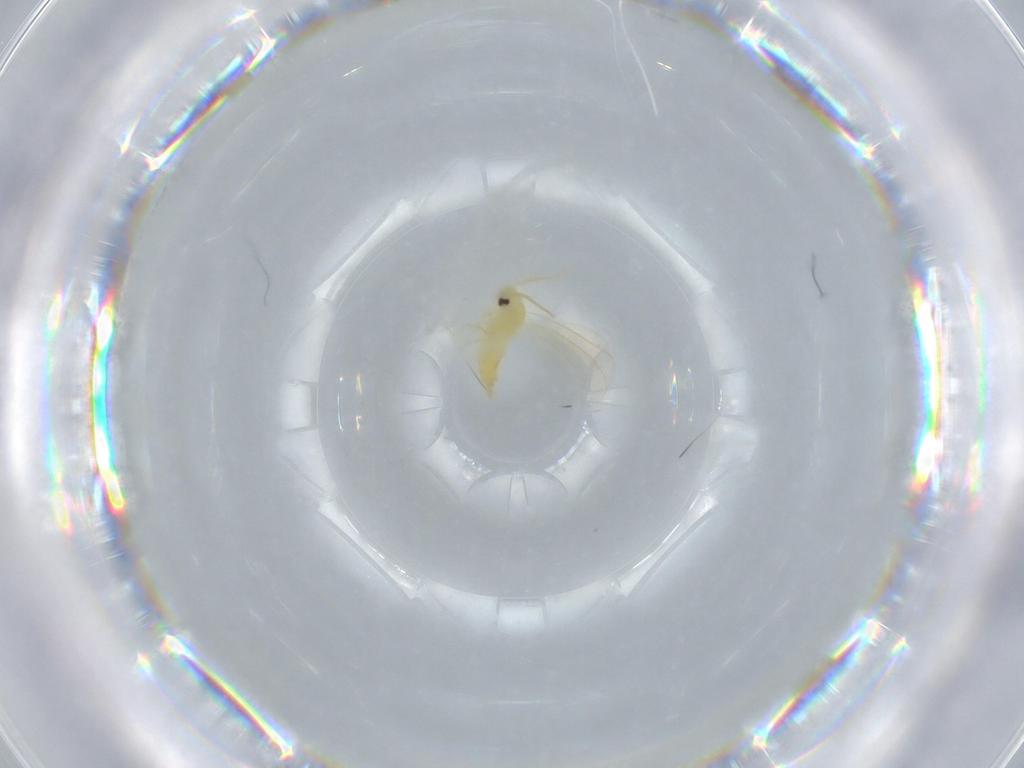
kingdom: Animalia
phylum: Arthropoda
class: Insecta
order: Hemiptera
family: Aleyrodidae
